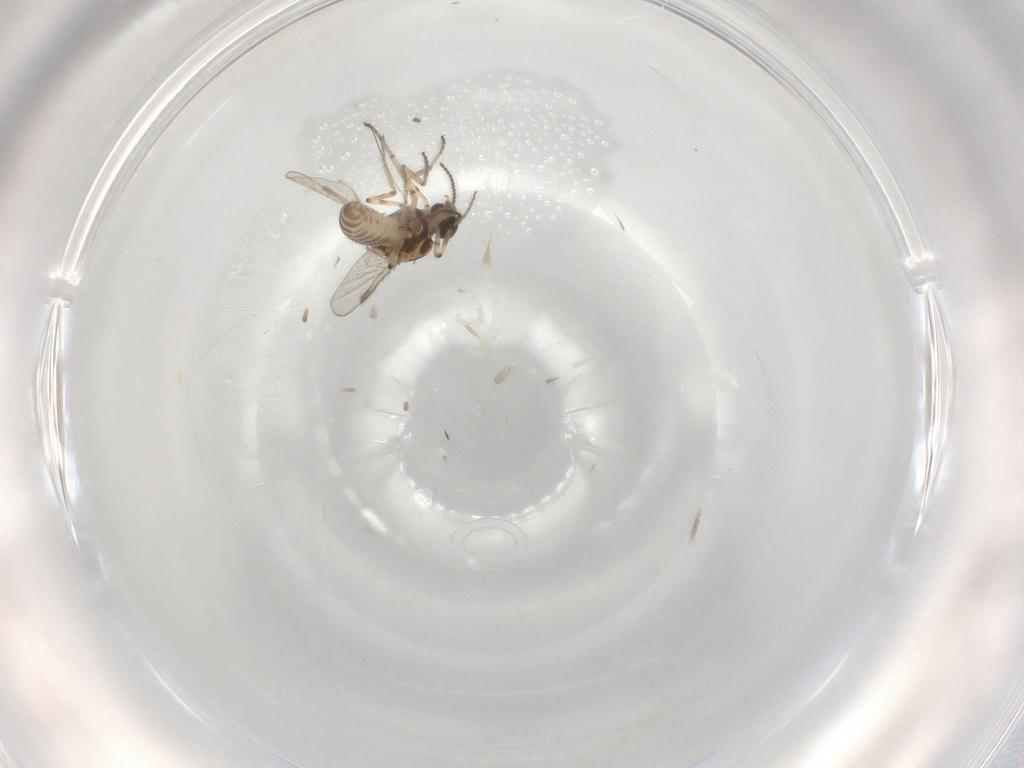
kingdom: Animalia
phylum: Arthropoda
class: Insecta
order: Diptera
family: Ceratopogonidae
